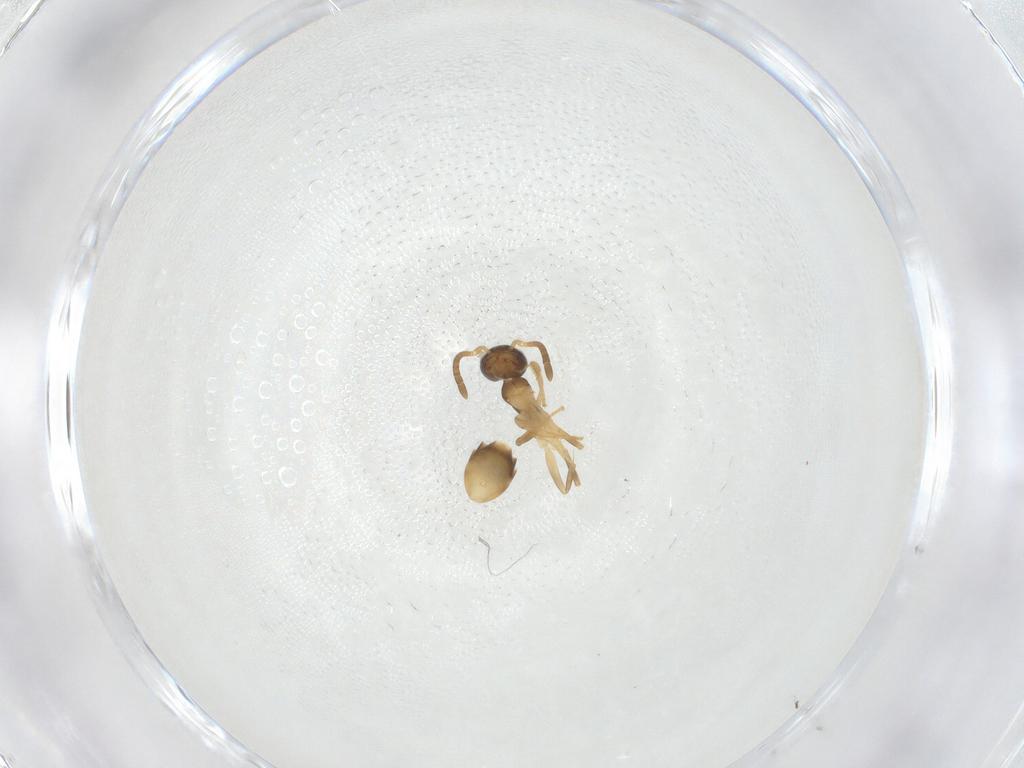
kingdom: Animalia
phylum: Arthropoda
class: Insecta
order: Hymenoptera
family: Formicidae
